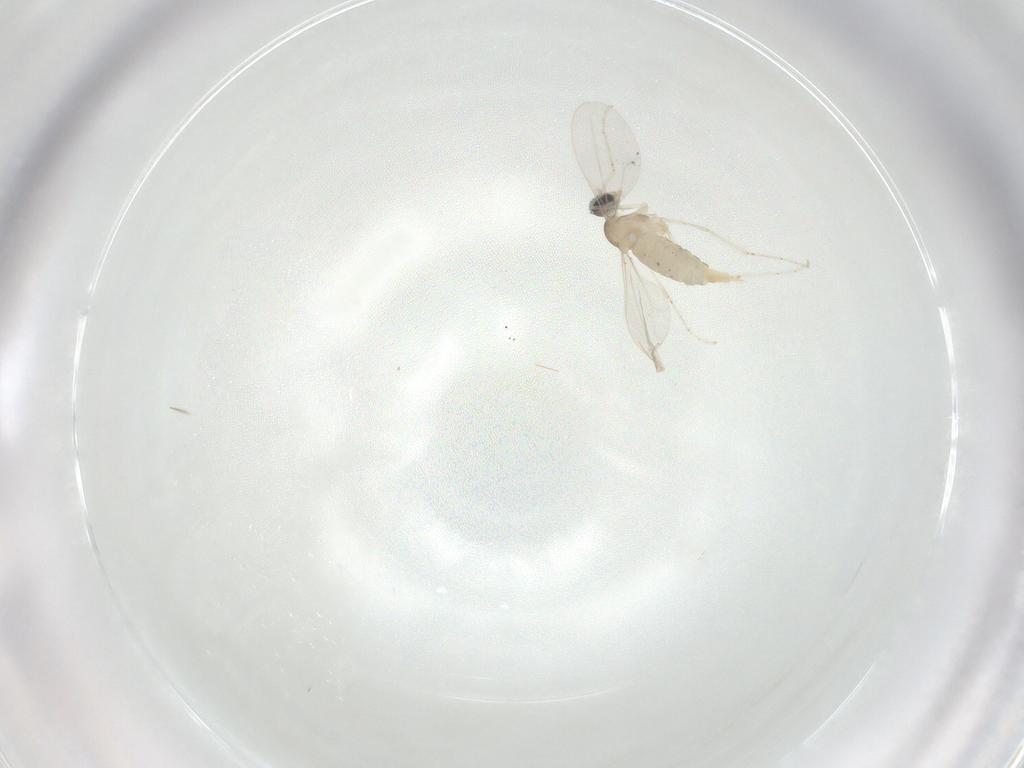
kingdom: Animalia
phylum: Arthropoda
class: Insecta
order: Diptera
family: Cecidomyiidae
